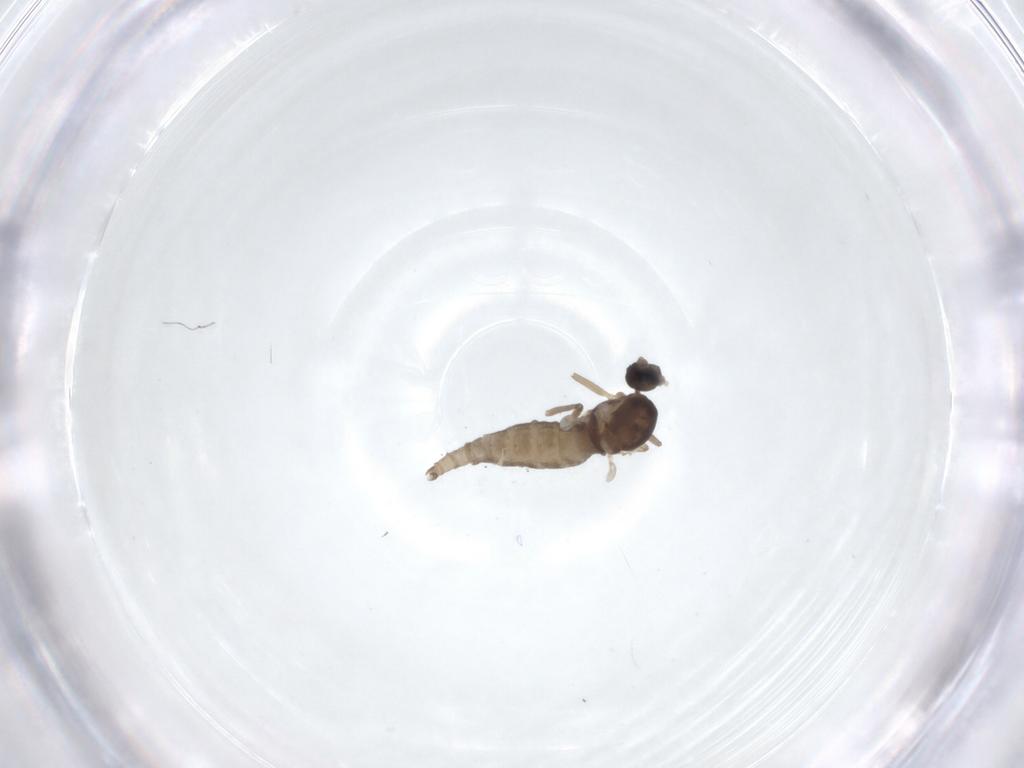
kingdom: Animalia
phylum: Arthropoda
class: Insecta
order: Diptera
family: Cecidomyiidae
